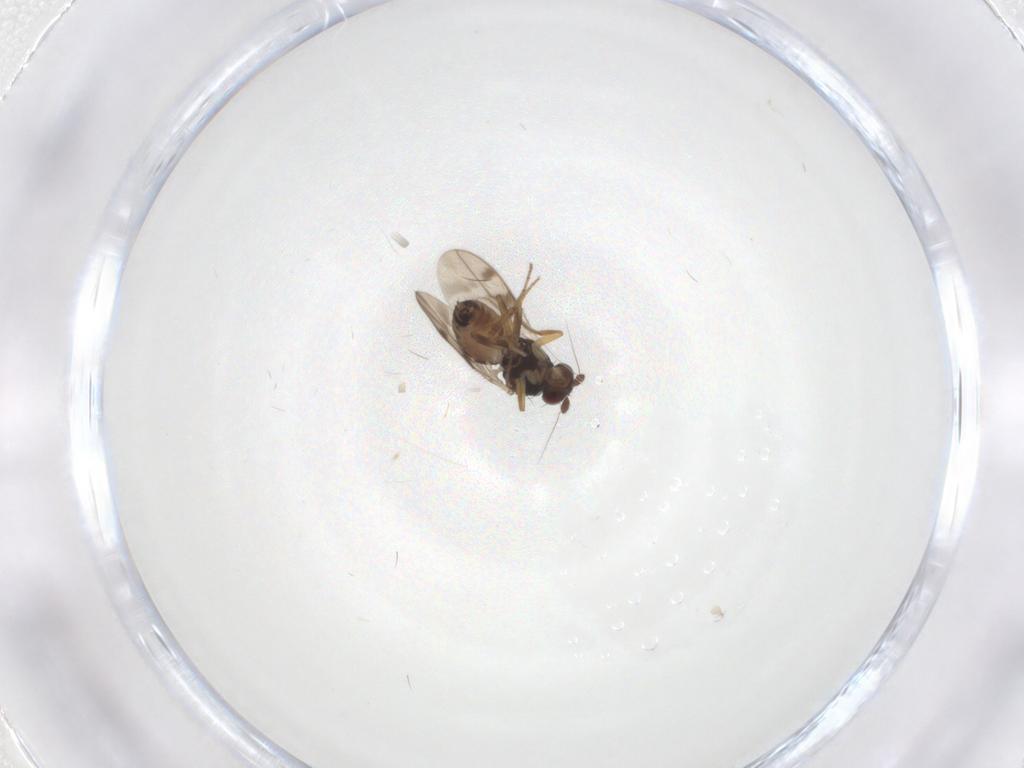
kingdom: Animalia
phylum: Arthropoda
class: Insecta
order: Diptera
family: Sphaeroceridae
